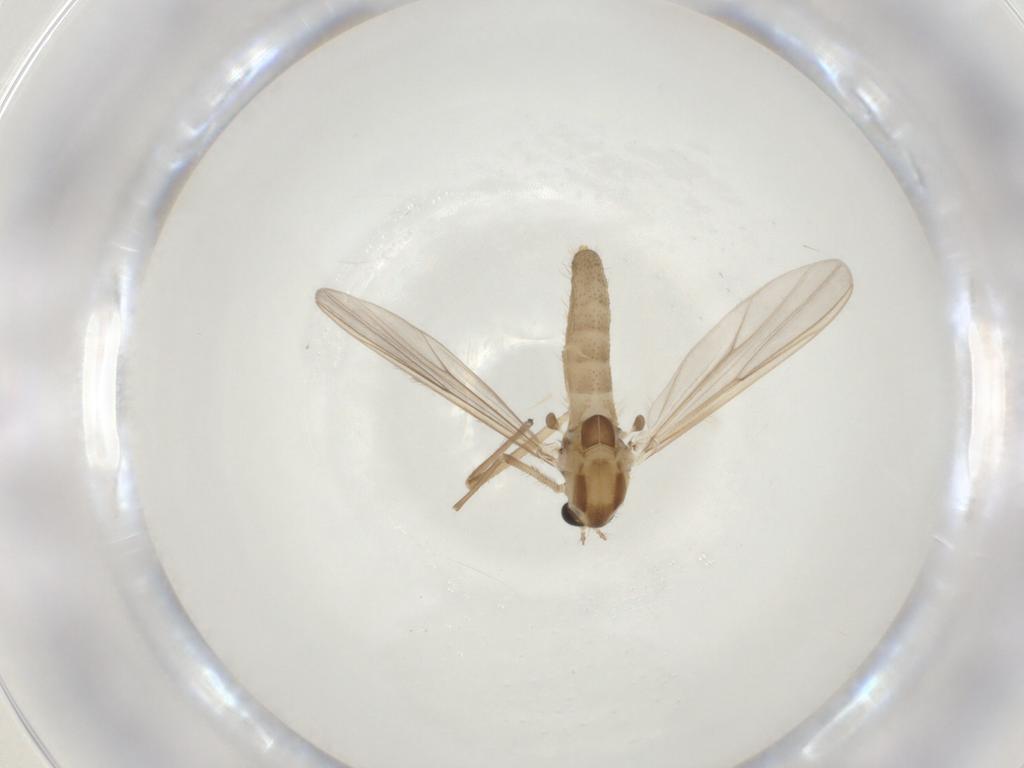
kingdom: Animalia
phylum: Arthropoda
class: Insecta
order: Diptera
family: Chironomidae
